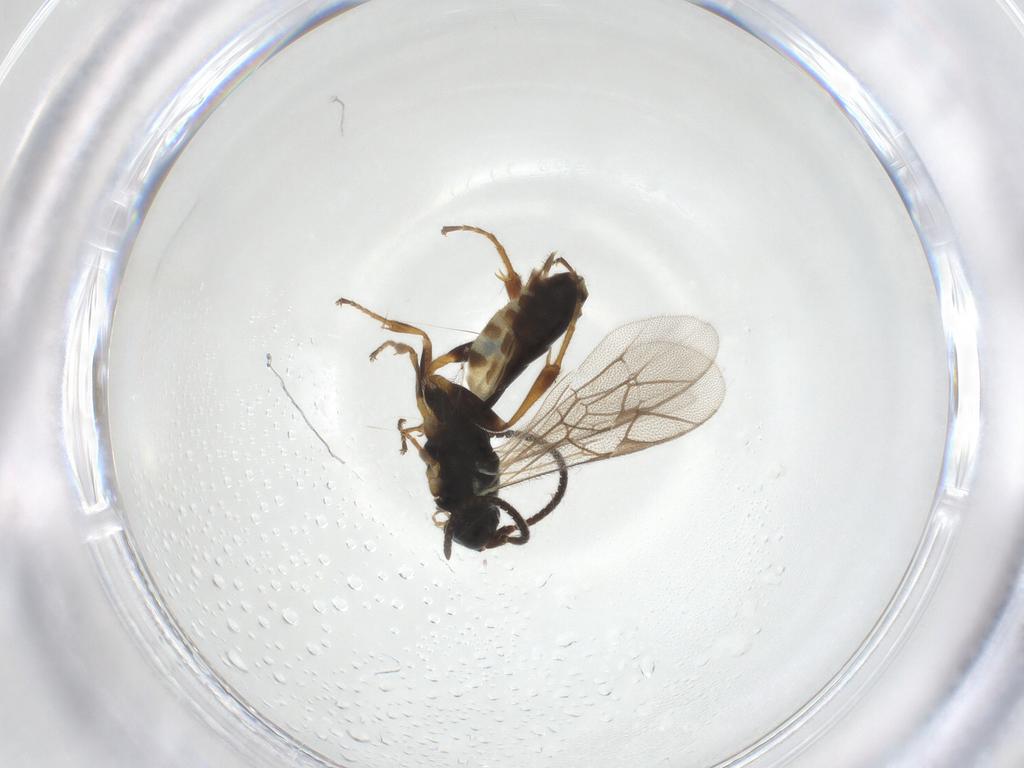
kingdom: Animalia
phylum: Arthropoda
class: Insecta
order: Hymenoptera
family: Ichneumonidae
